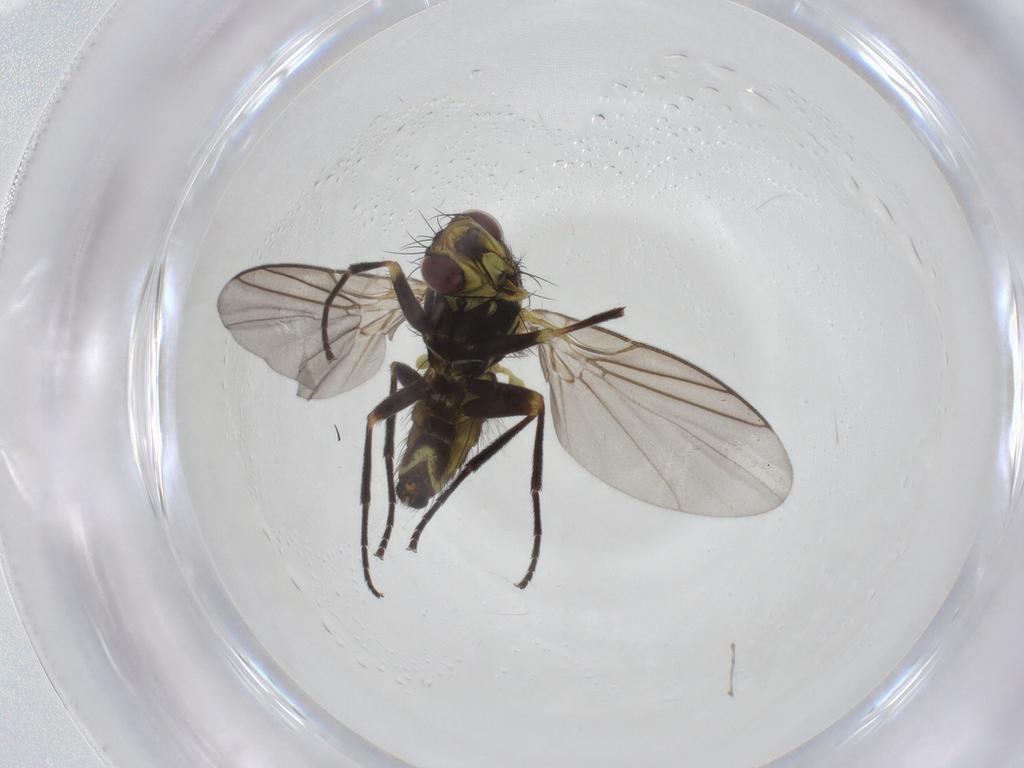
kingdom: Animalia
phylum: Arthropoda
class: Insecta
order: Diptera
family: Agromyzidae
